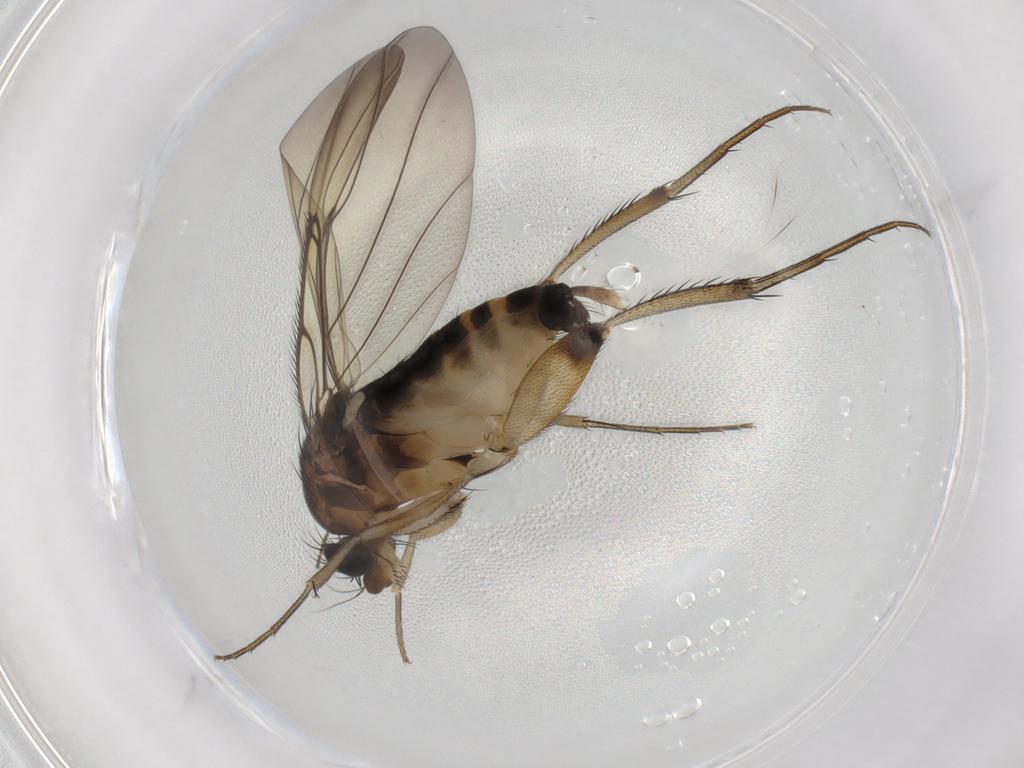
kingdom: Animalia
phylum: Arthropoda
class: Insecta
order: Diptera
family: Phoridae
